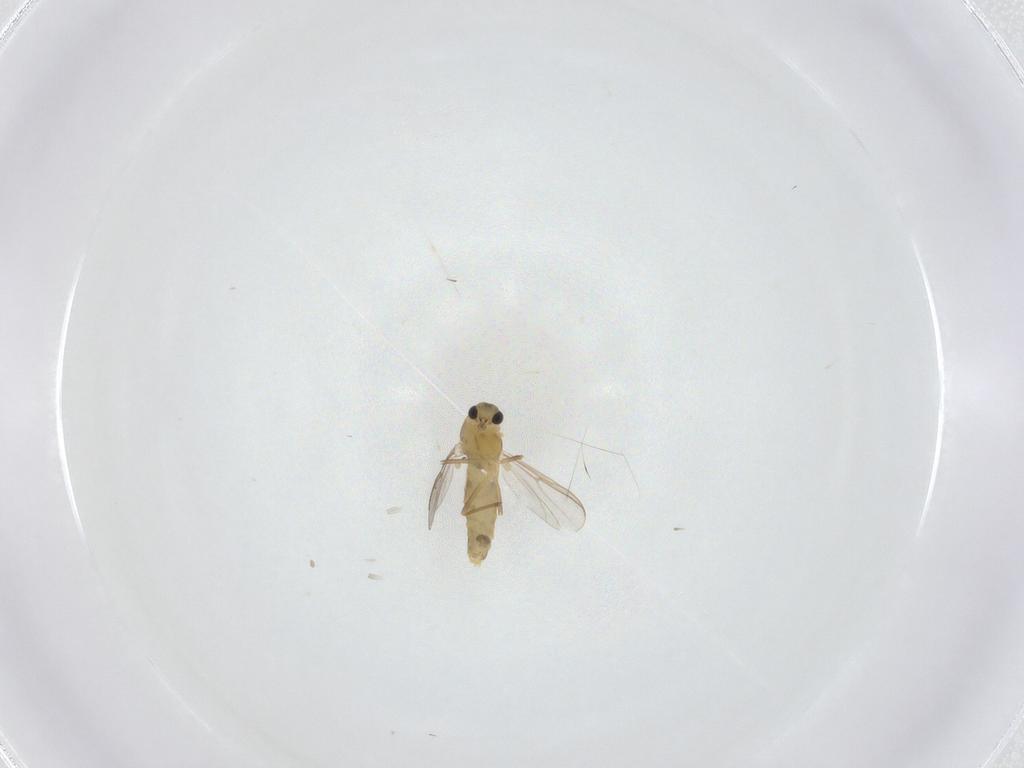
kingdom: Animalia
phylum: Arthropoda
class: Insecta
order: Diptera
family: Chironomidae
